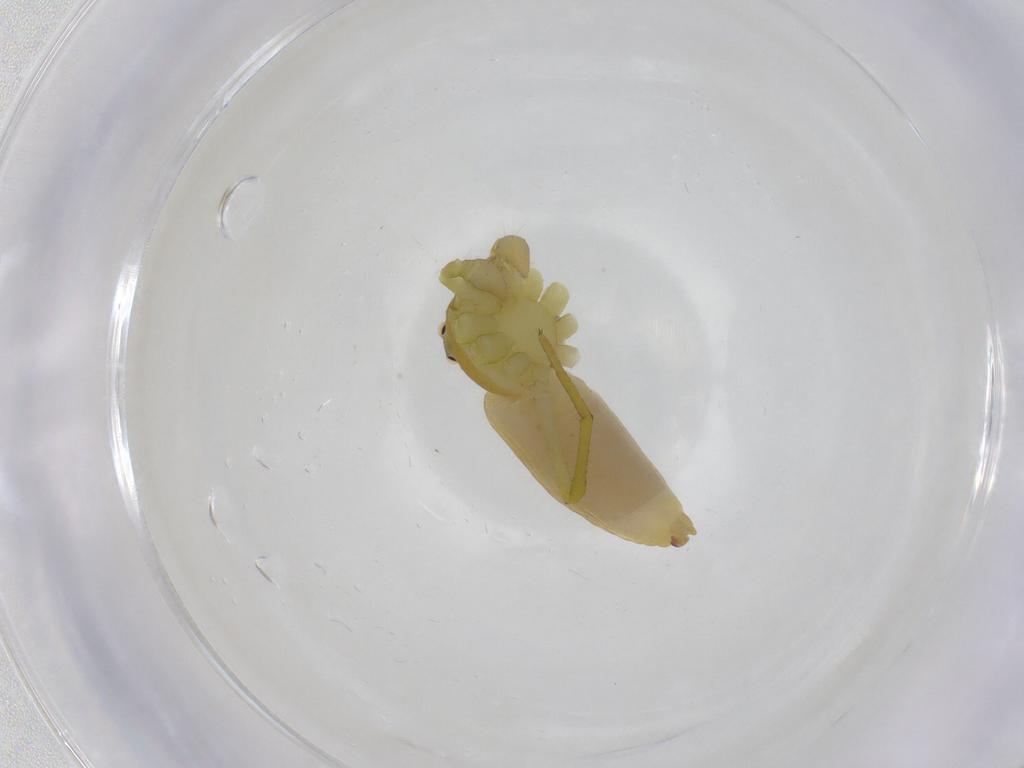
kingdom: Animalia
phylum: Arthropoda
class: Arachnida
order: Araneae
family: Thomisidae
